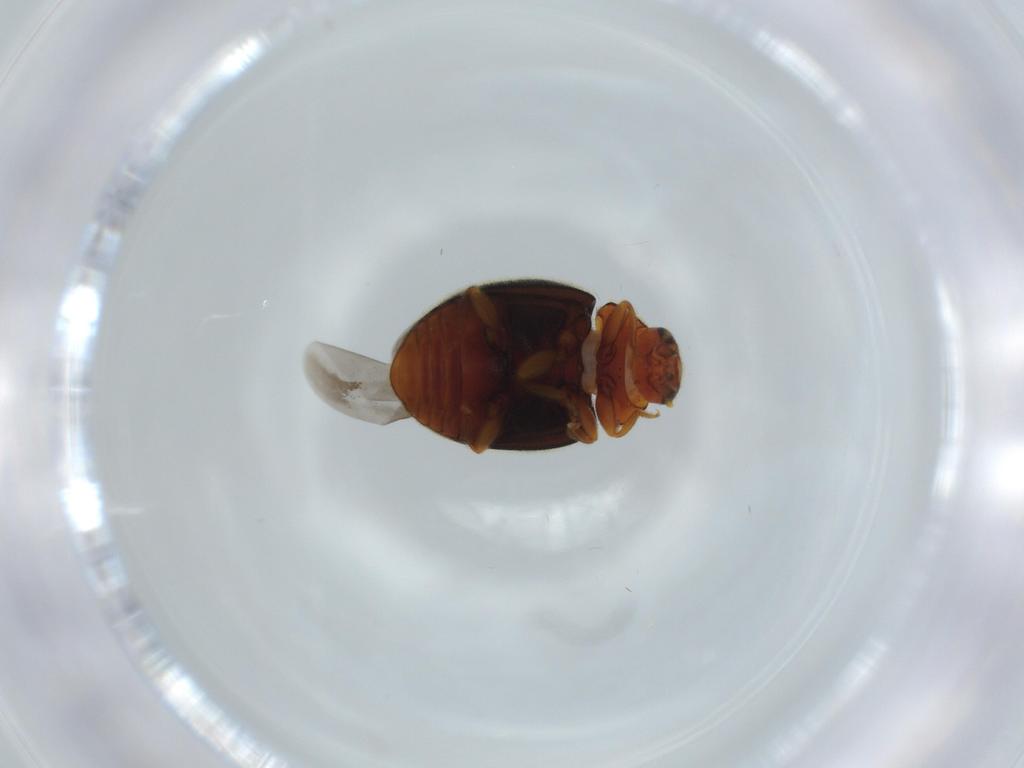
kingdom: Animalia
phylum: Arthropoda
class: Insecta
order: Coleoptera
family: Coccinellidae
